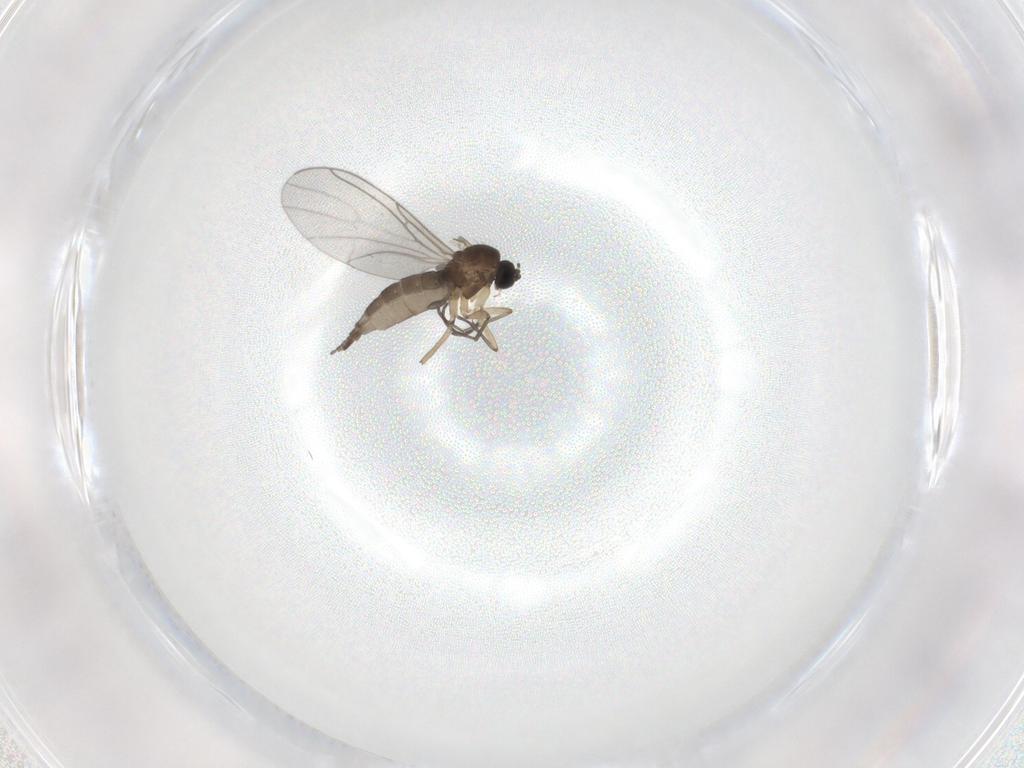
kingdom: Animalia
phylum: Arthropoda
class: Insecta
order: Diptera
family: Sciaridae
